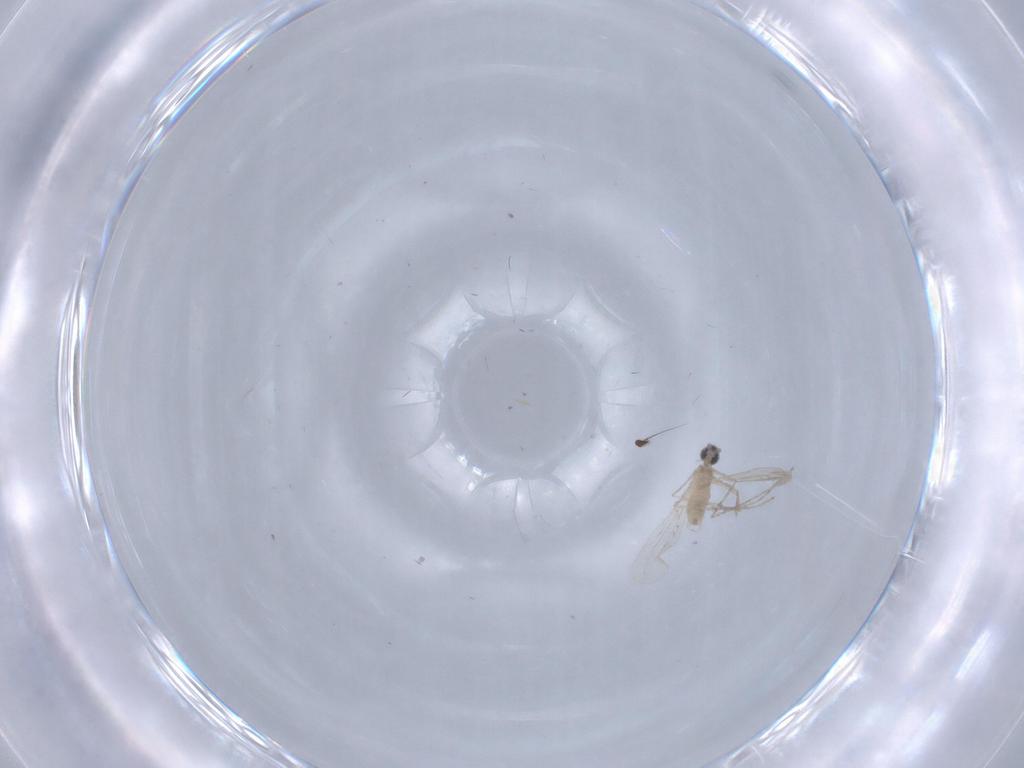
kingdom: Animalia
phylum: Arthropoda
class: Insecta
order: Diptera
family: Dolichopodidae
